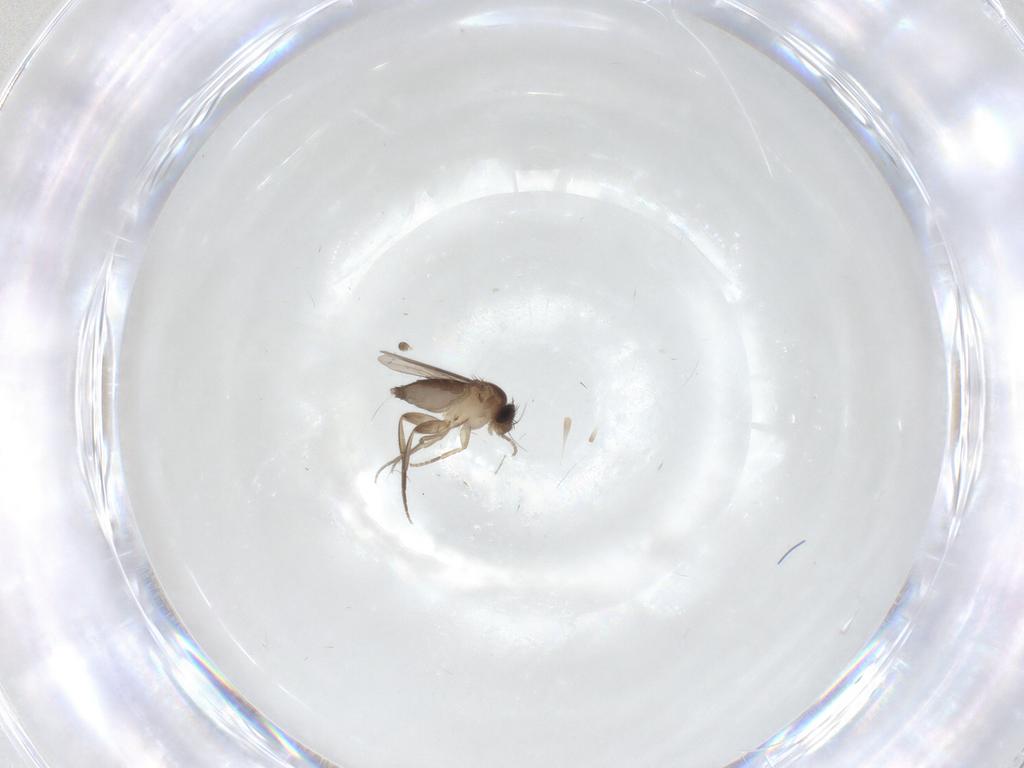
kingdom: Animalia
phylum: Arthropoda
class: Insecta
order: Diptera
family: Phoridae
